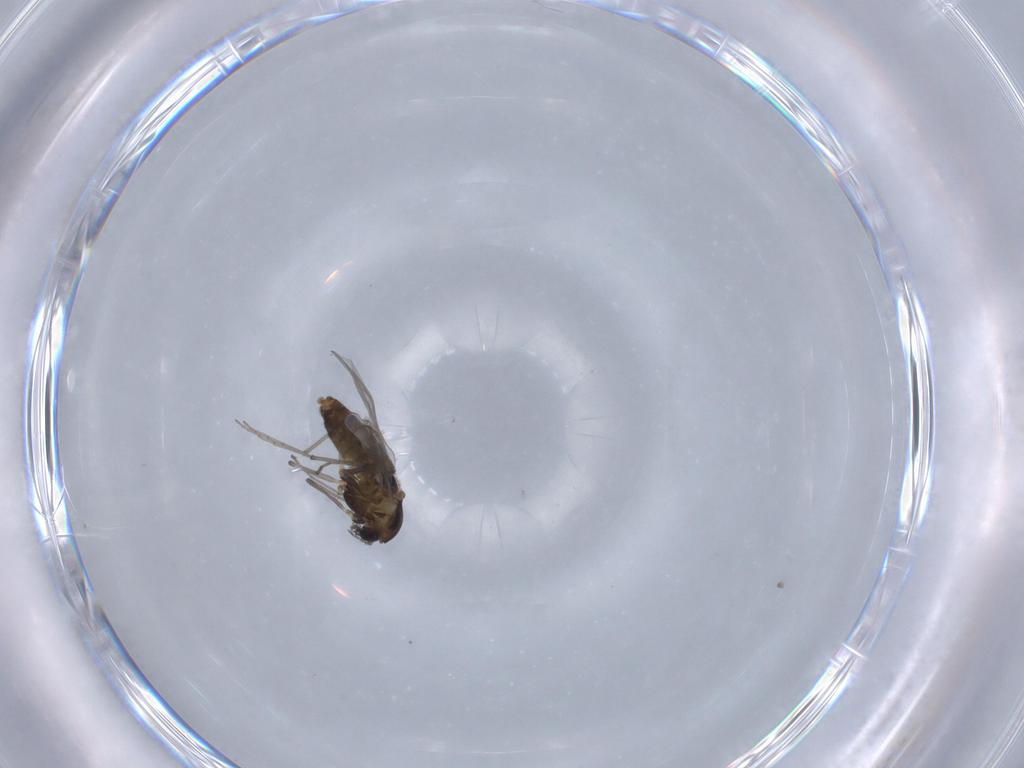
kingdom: Animalia
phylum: Arthropoda
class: Insecta
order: Diptera
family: Chironomidae
